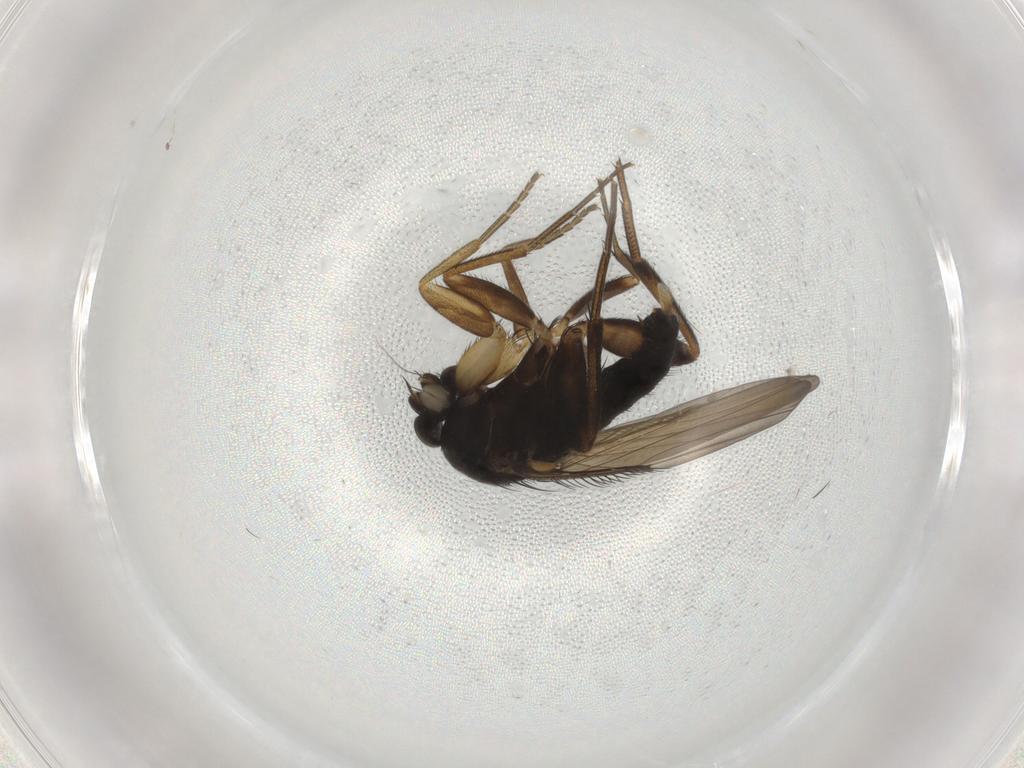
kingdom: Animalia
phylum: Arthropoda
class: Insecta
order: Diptera
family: Phoridae
